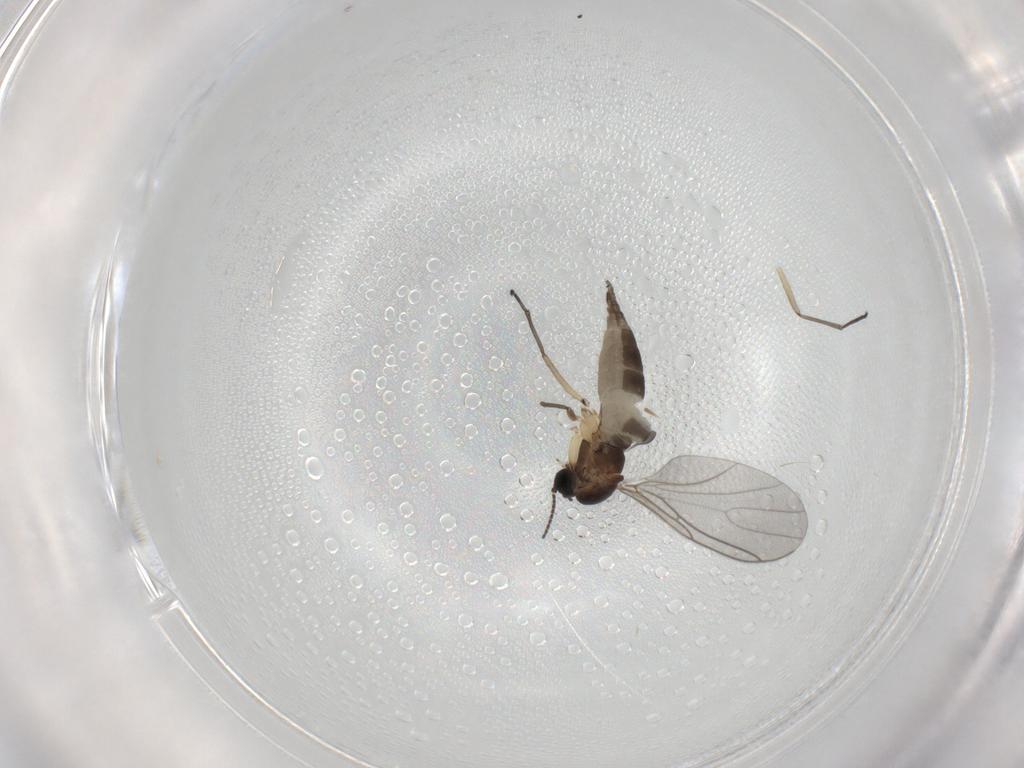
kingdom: Animalia
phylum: Arthropoda
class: Insecta
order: Diptera
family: Sciaridae
